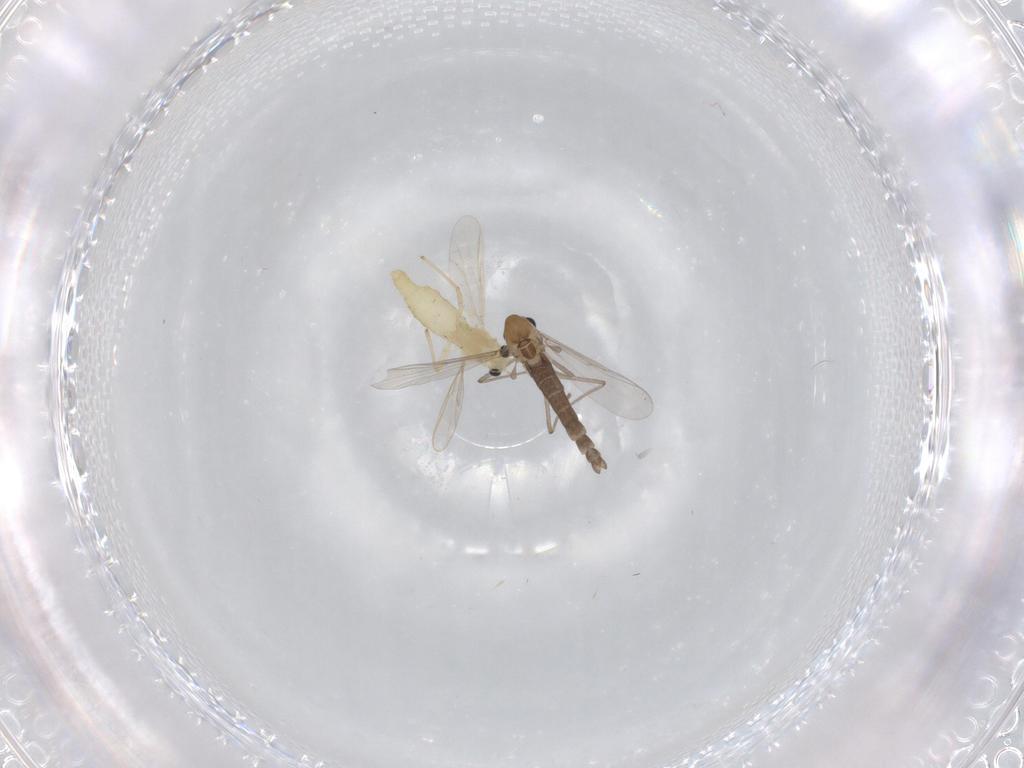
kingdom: Animalia
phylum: Arthropoda
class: Insecta
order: Diptera
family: Chironomidae
